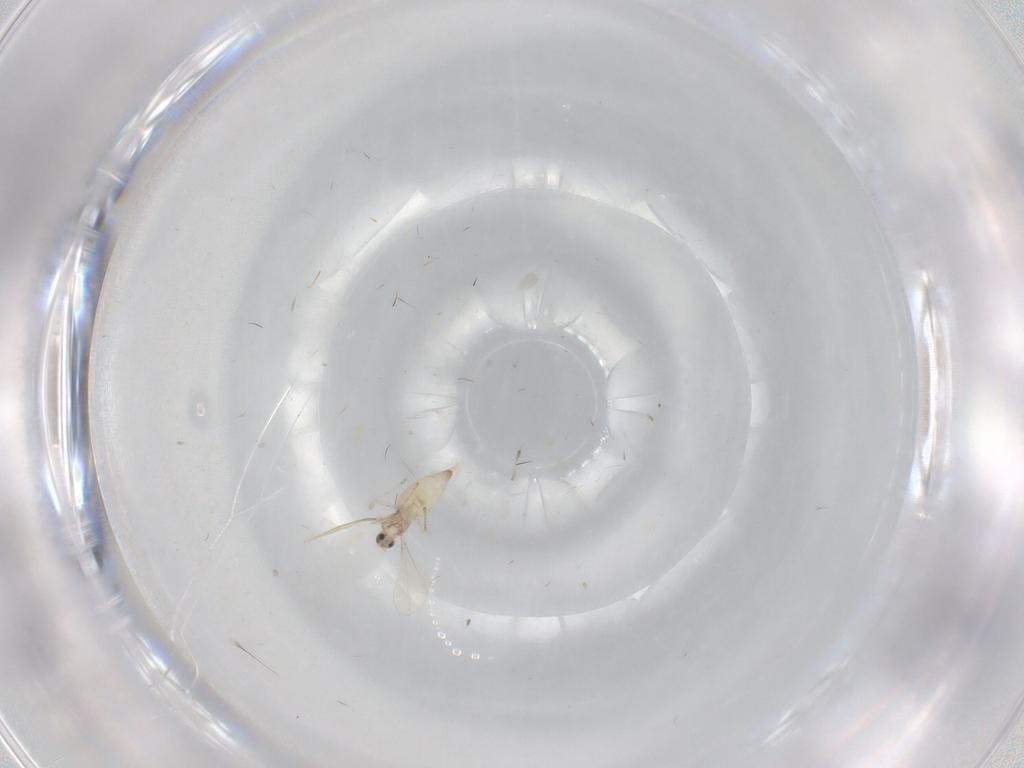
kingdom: Animalia
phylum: Arthropoda
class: Insecta
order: Diptera
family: Cecidomyiidae
